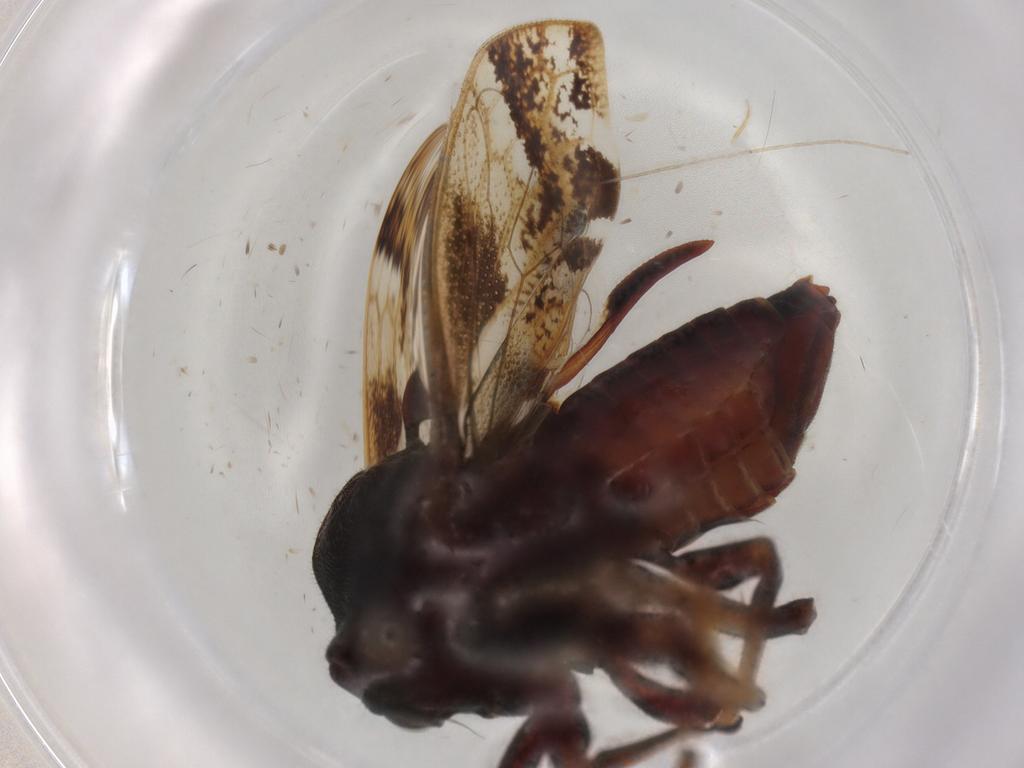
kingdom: Animalia
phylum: Arthropoda
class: Insecta
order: Hemiptera
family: Membracidae
